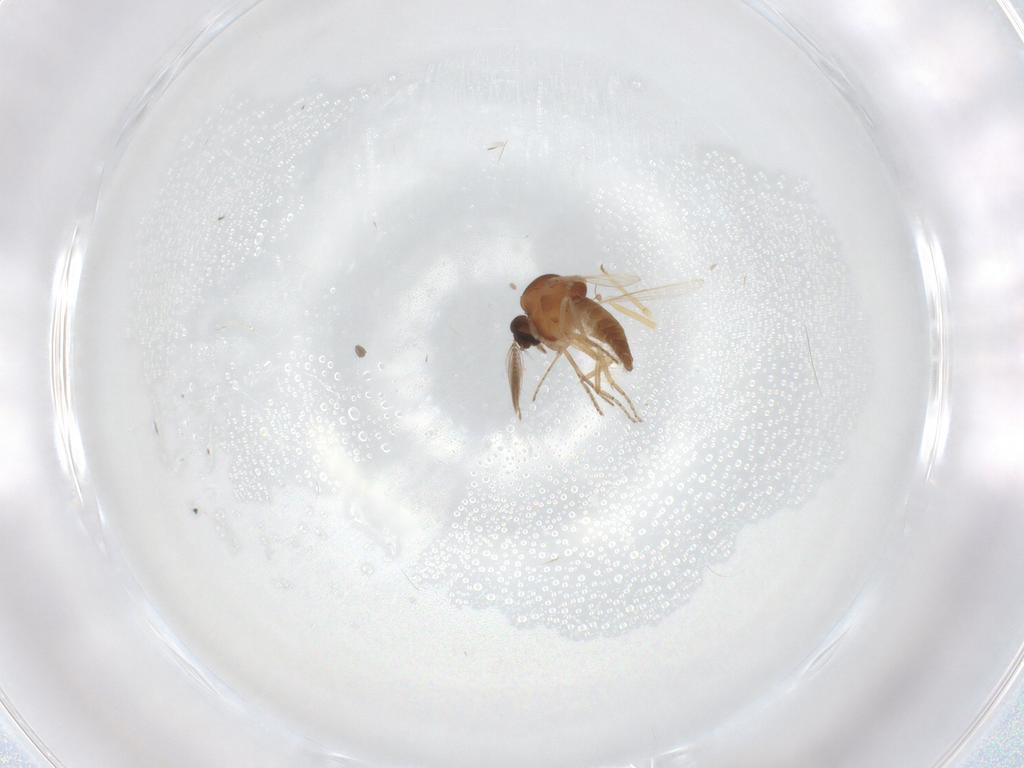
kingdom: Animalia
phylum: Arthropoda
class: Insecta
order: Diptera
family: Ceratopogonidae
